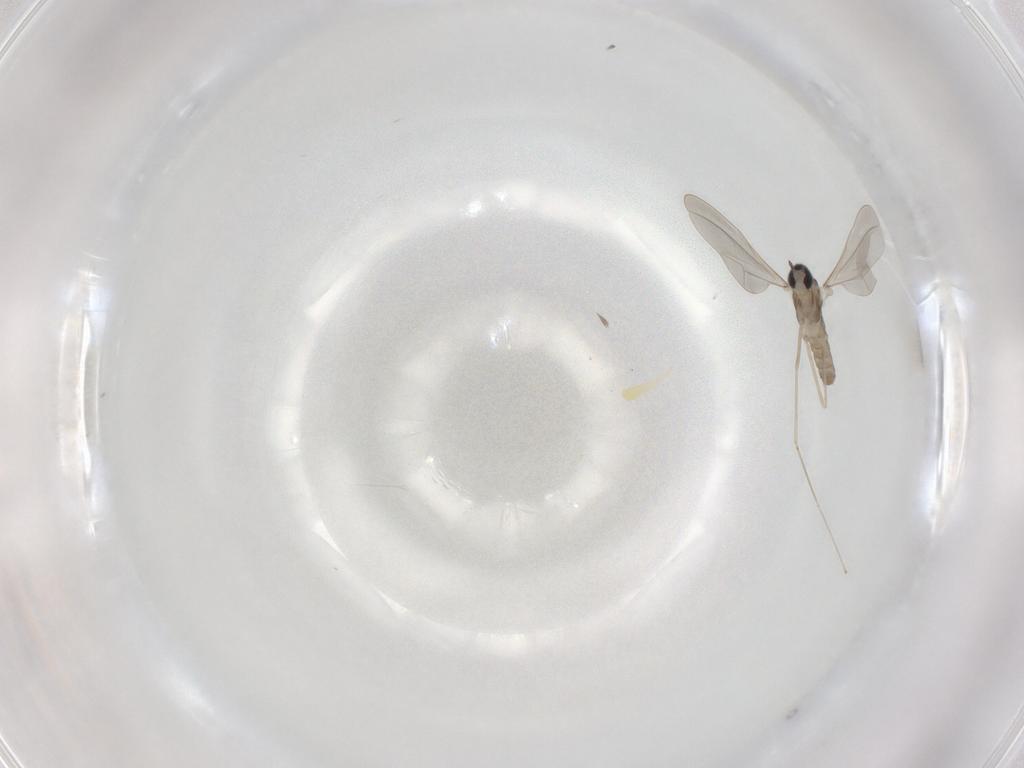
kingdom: Animalia
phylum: Arthropoda
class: Insecta
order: Diptera
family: Cecidomyiidae
